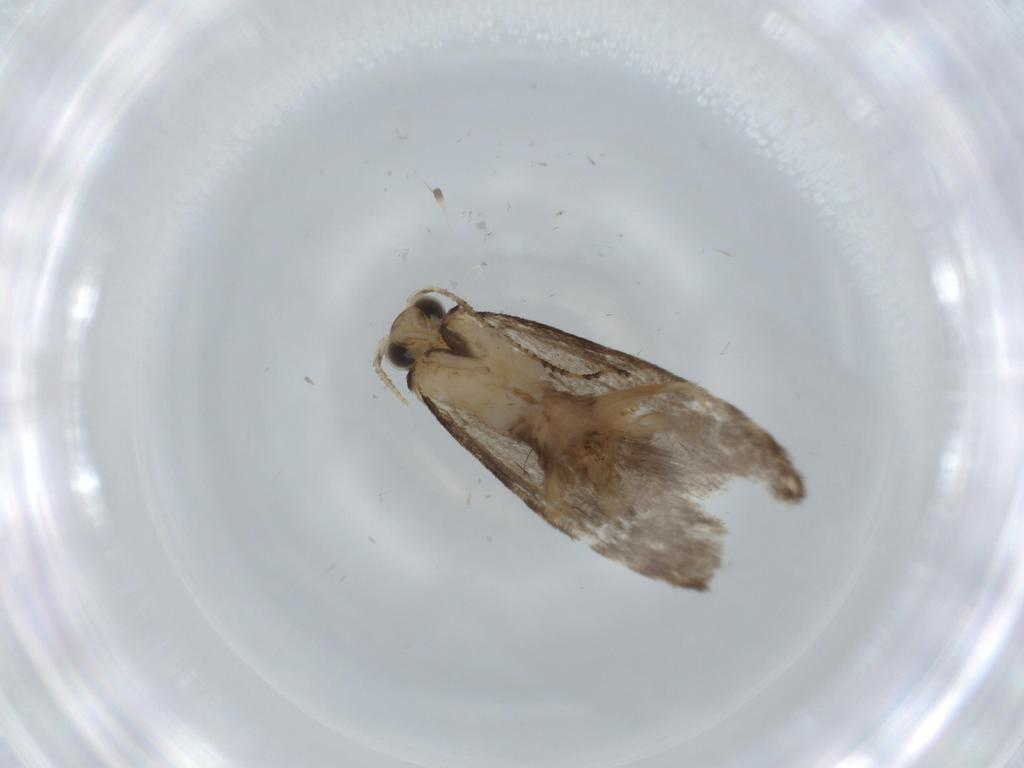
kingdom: Animalia
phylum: Arthropoda
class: Insecta
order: Lepidoptera
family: Tineidae
